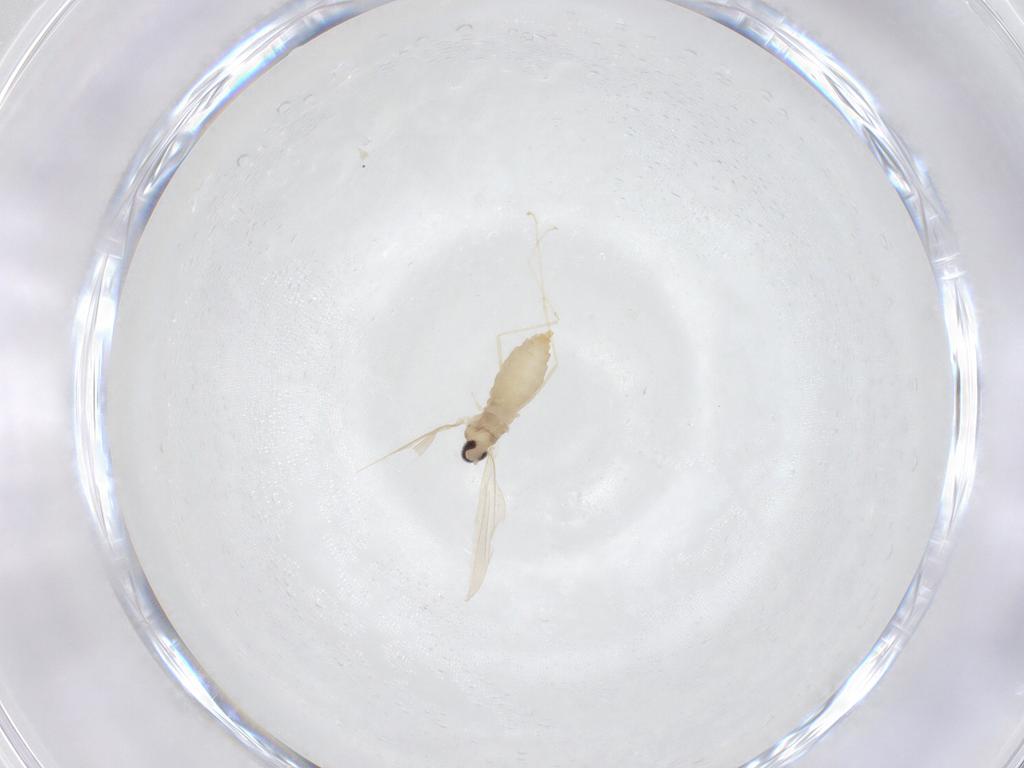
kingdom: Animalia
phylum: Arthropoda
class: Insecta
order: Diptera
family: Cecidomyiidae
